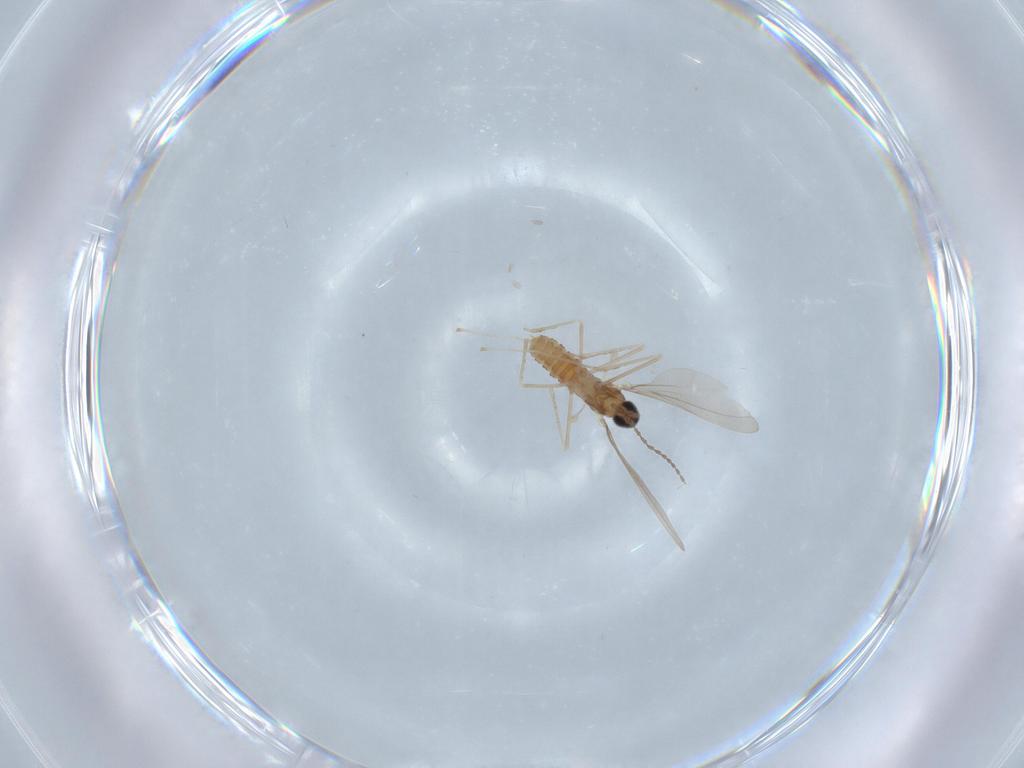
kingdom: Animalia
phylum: Arthropoda
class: Insecta
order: Diptera
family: Cecidomyiidae
